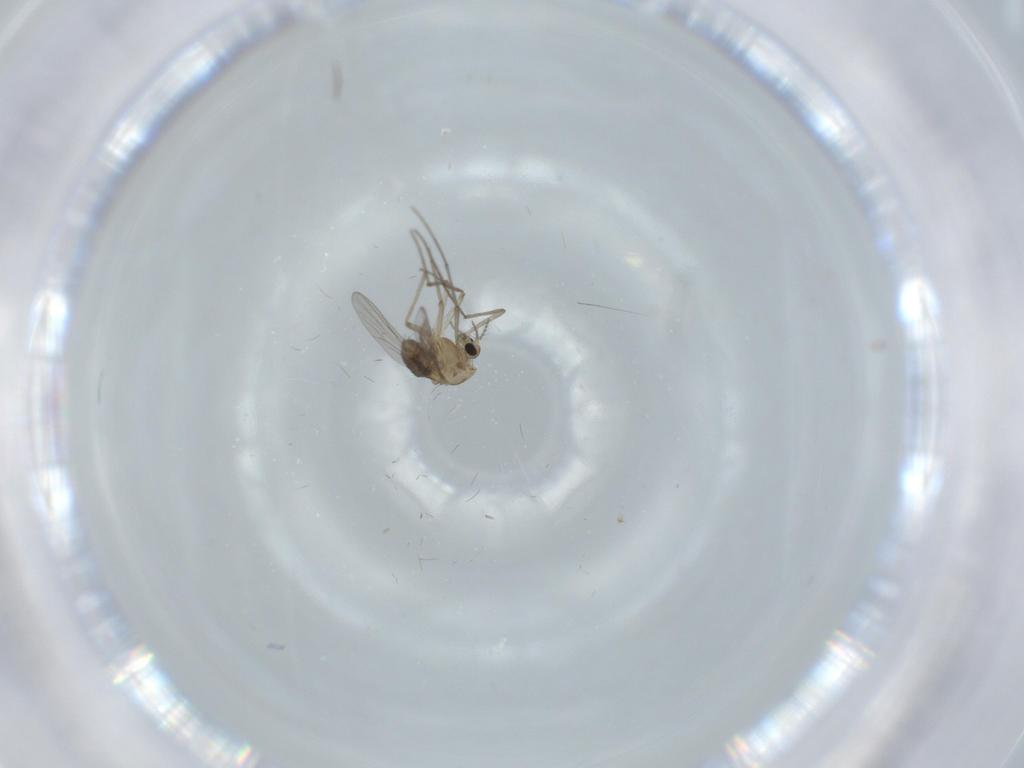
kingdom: Animalia
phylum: Arthropoda
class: Insecta
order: Diptera
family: Chironomidae
